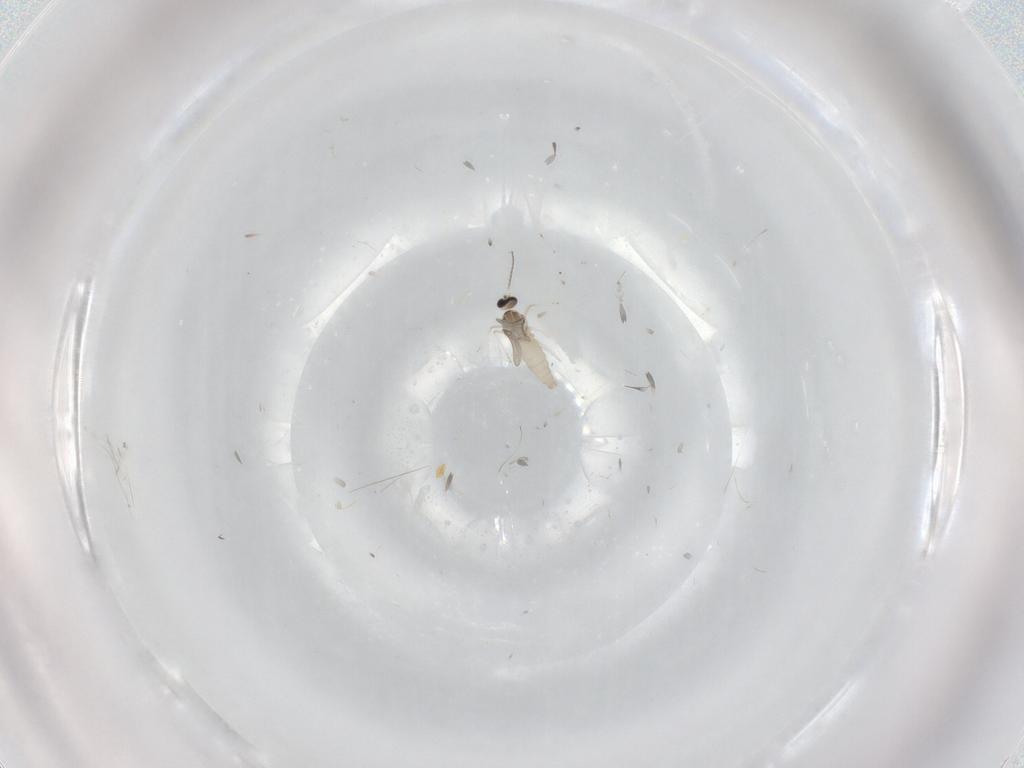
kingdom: Animalia
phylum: Arthropoda
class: Insecta
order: Diptera
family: Cecidomyiidae
